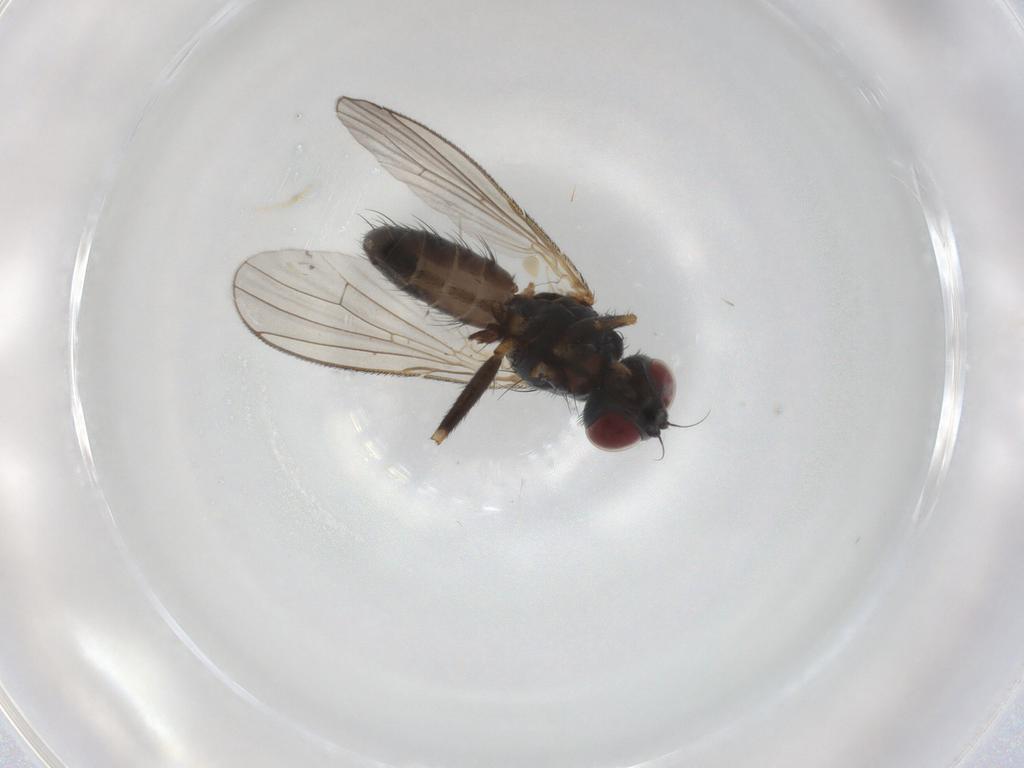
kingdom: Animalia
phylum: Arthropoda
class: Insecta
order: Diptera
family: Muscidae
